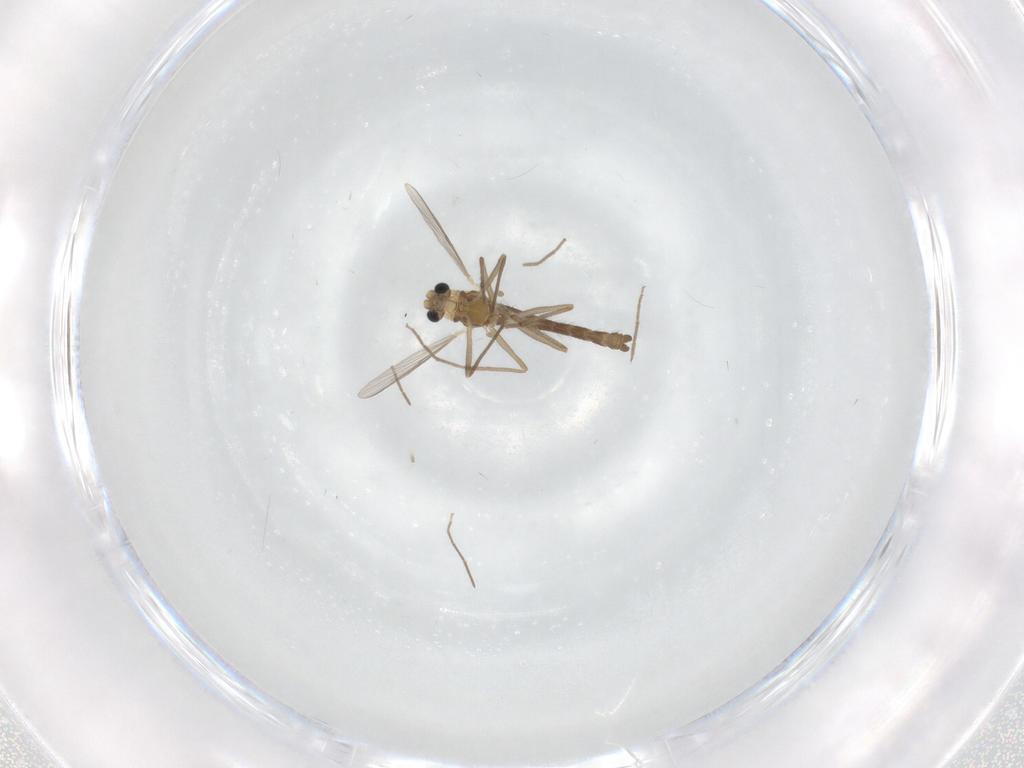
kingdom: Animalia
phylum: Arthropoda
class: Insecta
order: Diptera
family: Chironomidae
